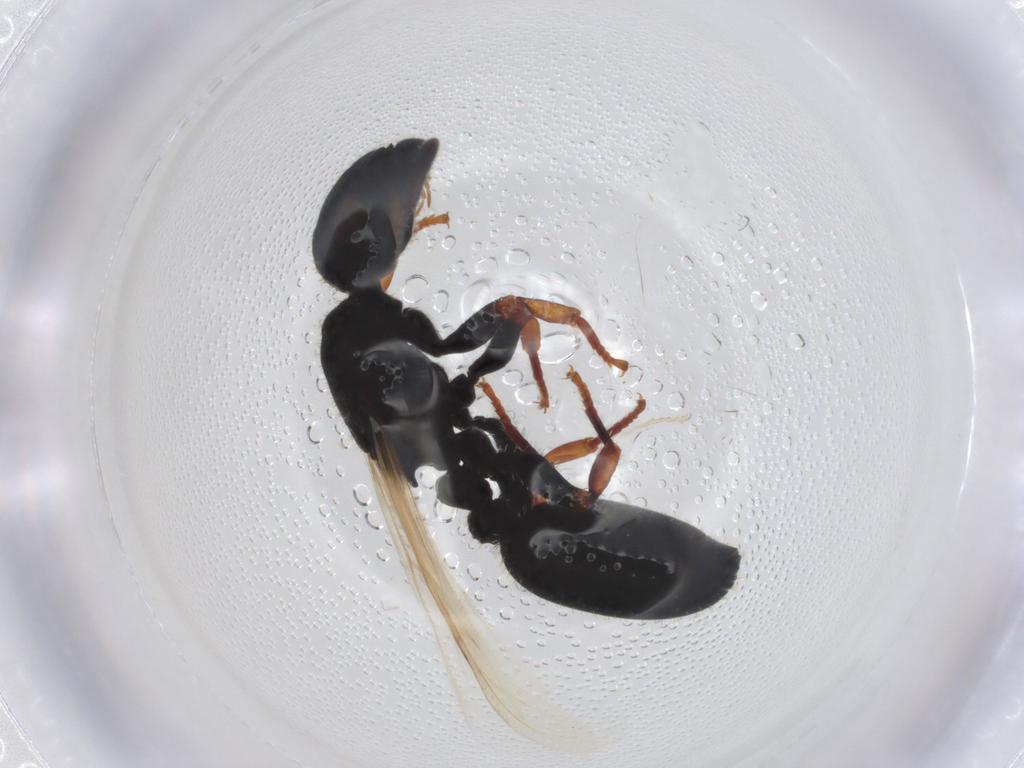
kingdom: Animalia
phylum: Arthropoda
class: Insecta
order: Hymenoptera
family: Formicidae
